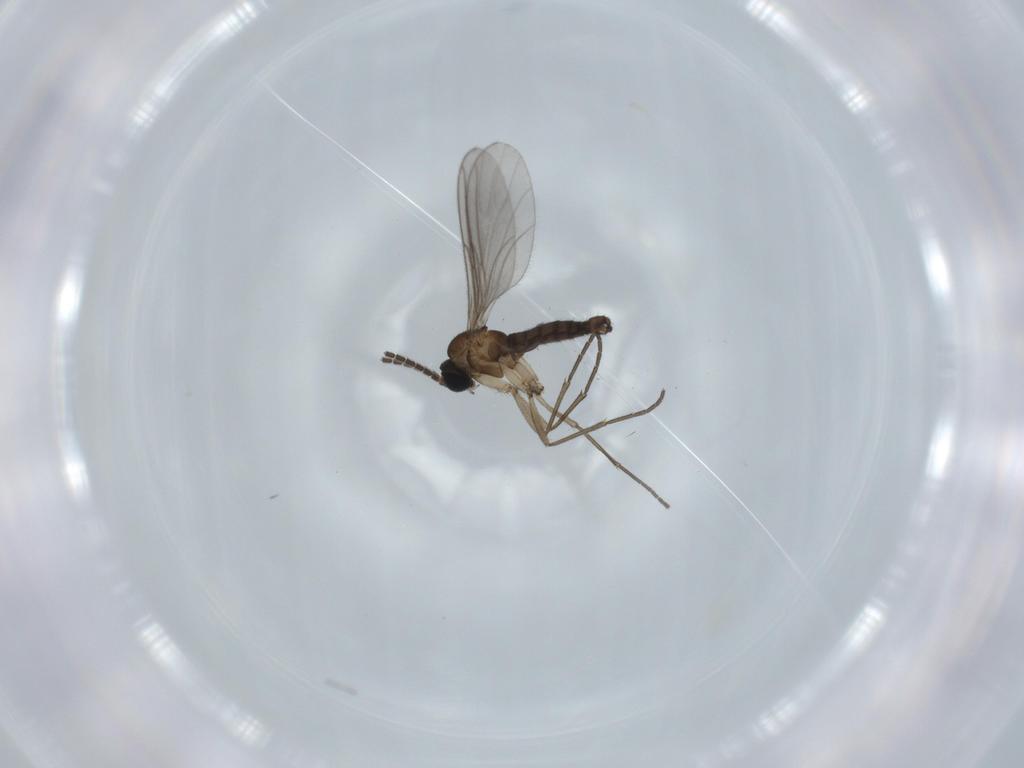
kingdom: Animalia
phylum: Arthropoda
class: Insecta
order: Diptera
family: Sciaridae
